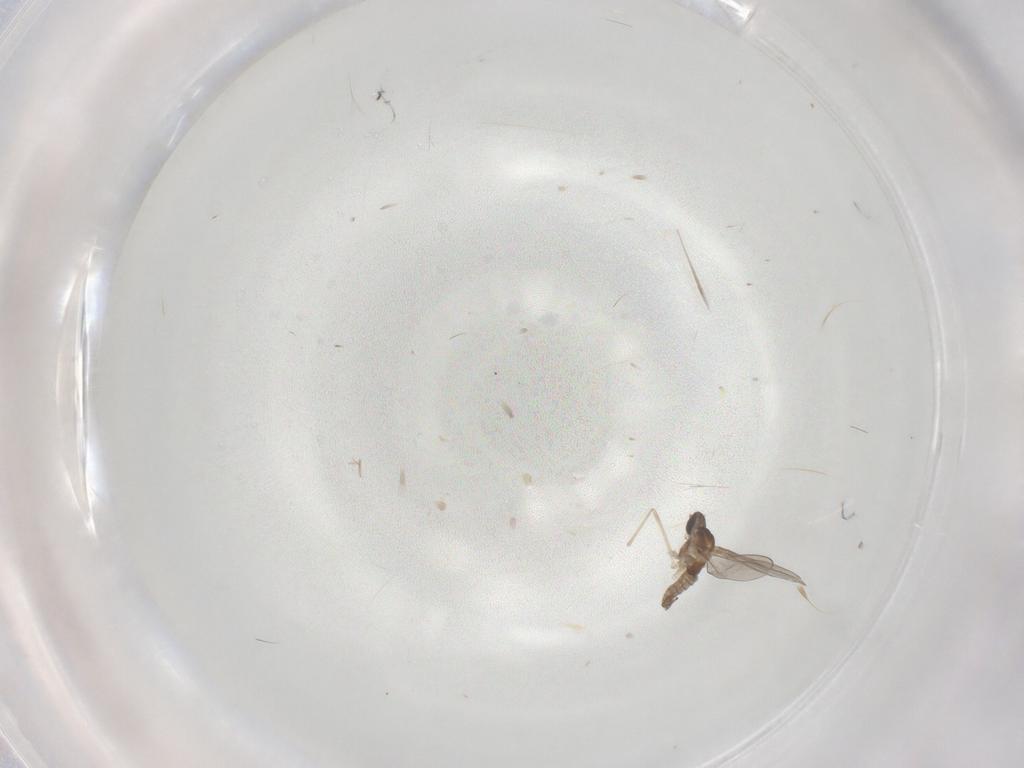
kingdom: Animalia
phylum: Arthropoda
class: Insecta
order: Diptera
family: Cecidomyiidae
